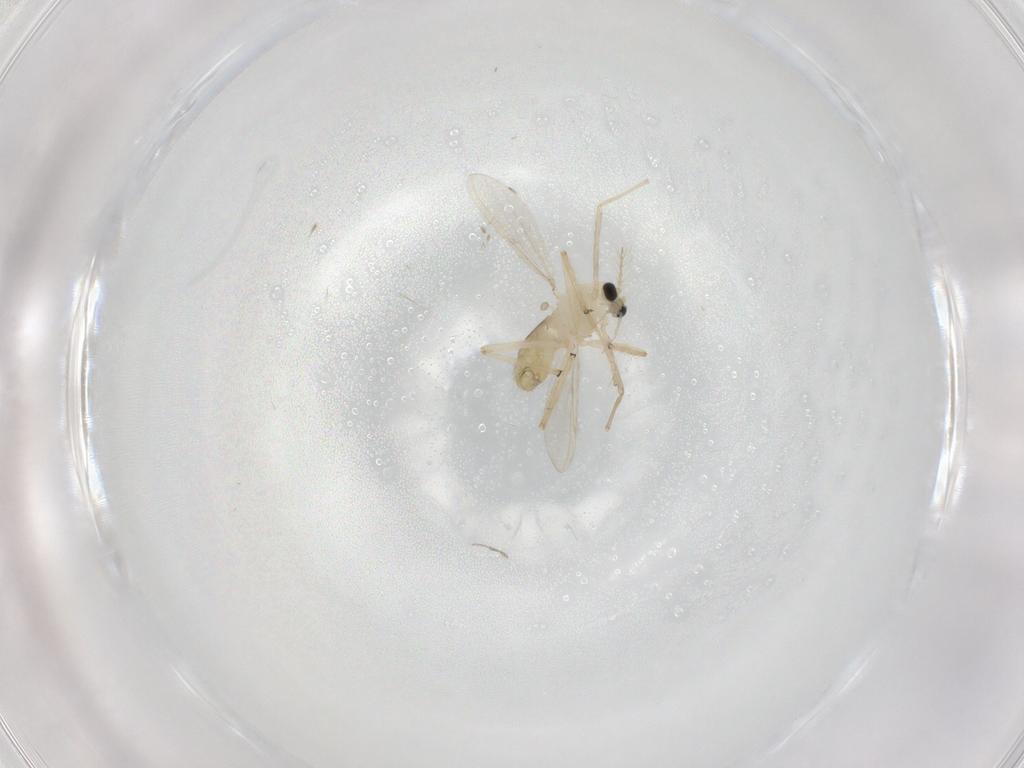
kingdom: Animalia
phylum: Arthropoda
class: Insecta
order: Diptera
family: Chironomidae
